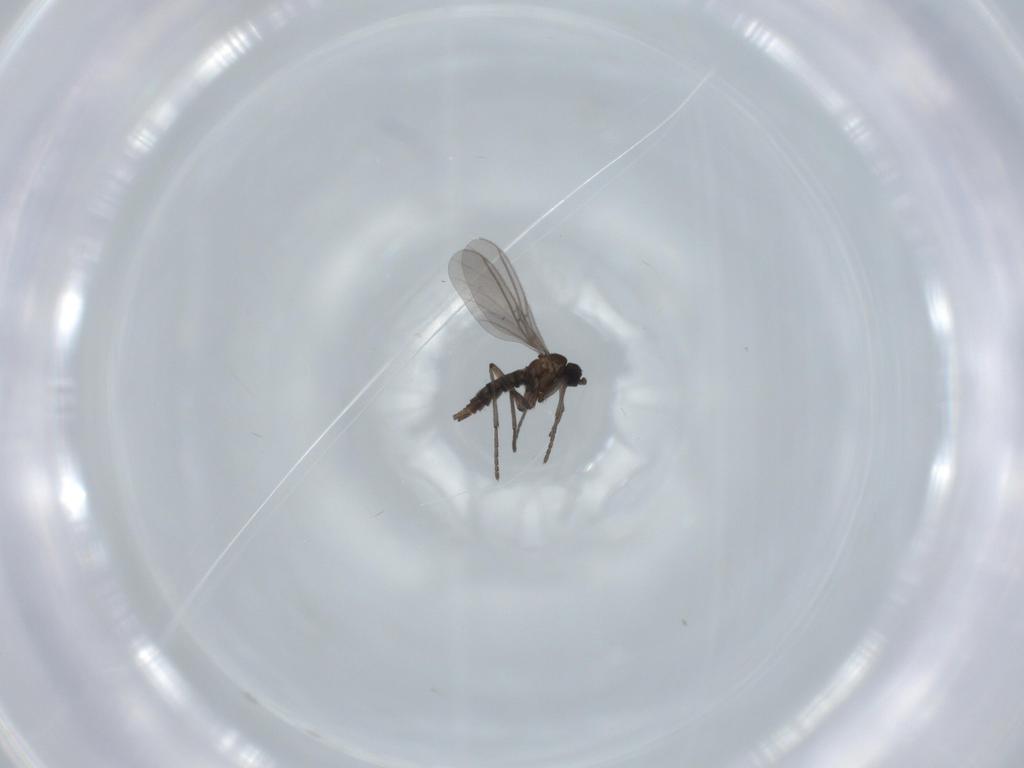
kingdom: Animalia
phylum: Arthropoda
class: Insecta
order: Diptera
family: Sciaridae
